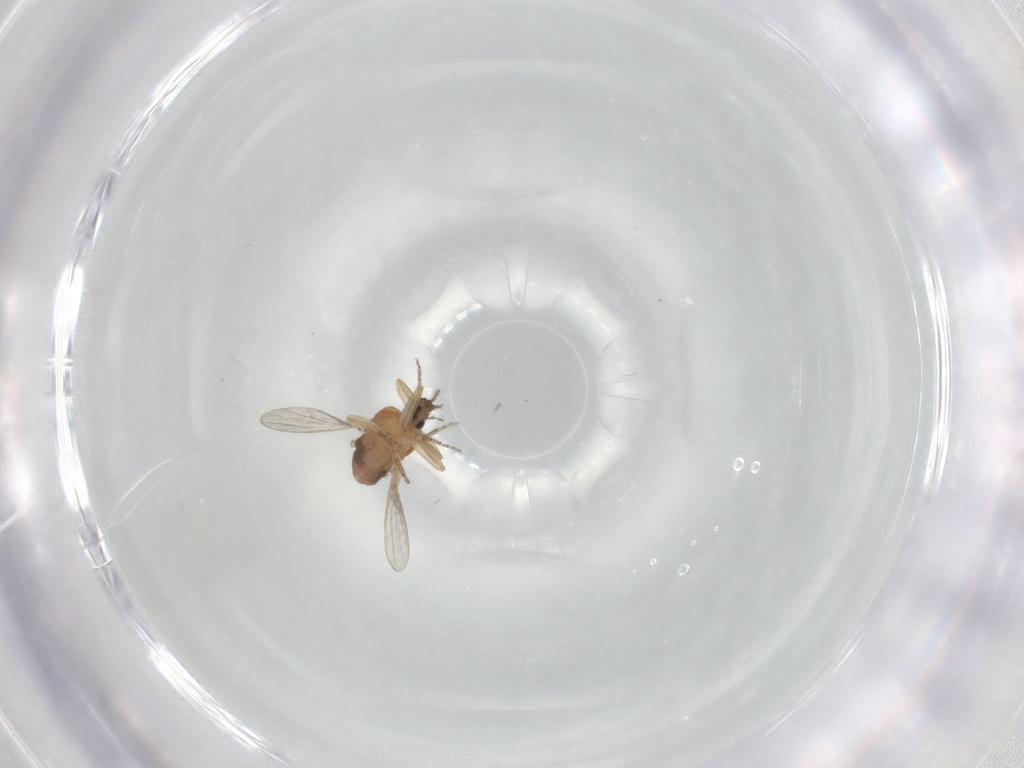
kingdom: Animalia
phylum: Arthropoda
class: Insecta
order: Diptera
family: Ceratopogonidae
